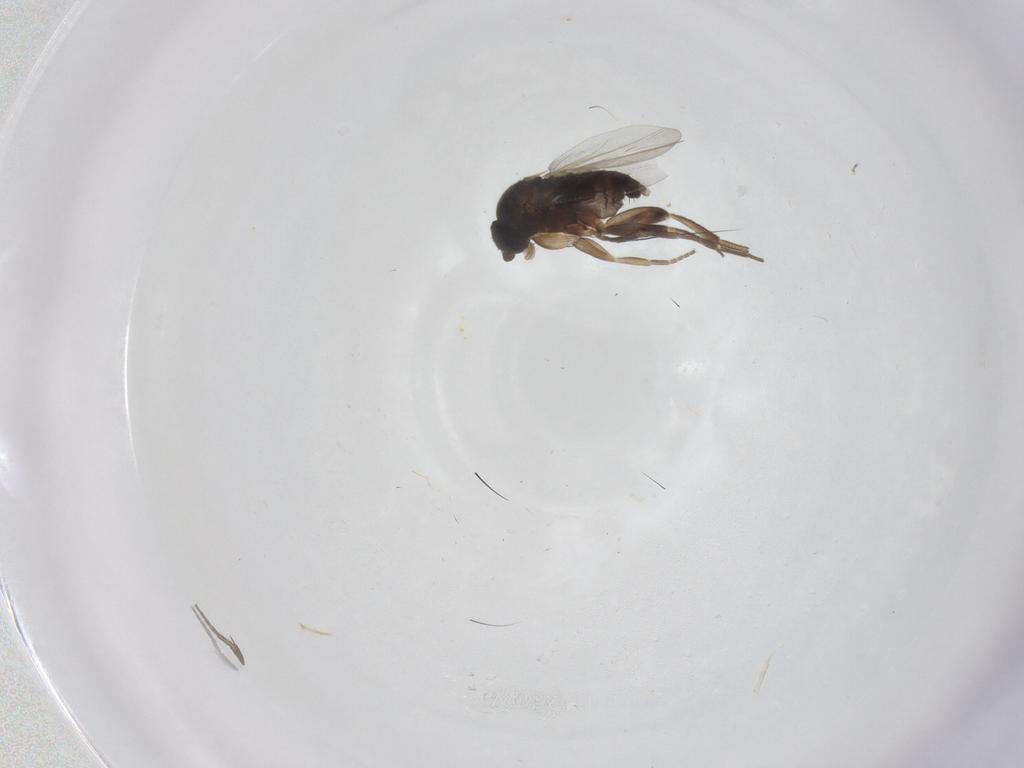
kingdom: Animalia
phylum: Arthropoda
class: Insecta
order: Diptera
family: Phoridae
